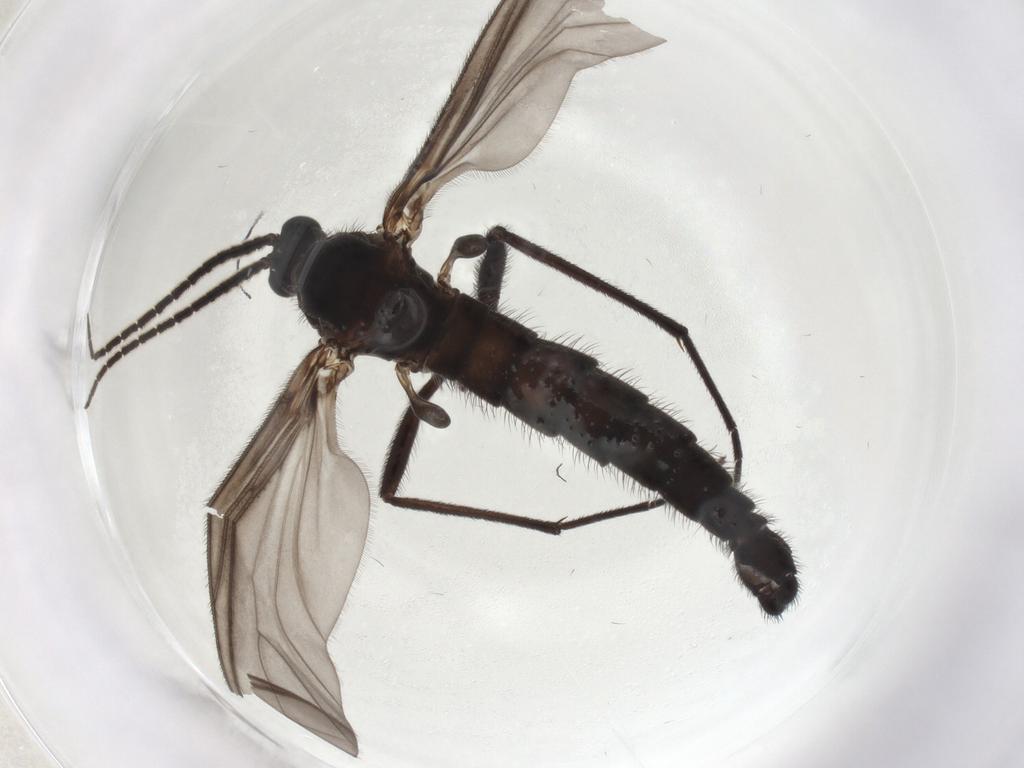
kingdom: Animalia
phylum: Arthropoda
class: Insecta
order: Diptera
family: Sciaridae
